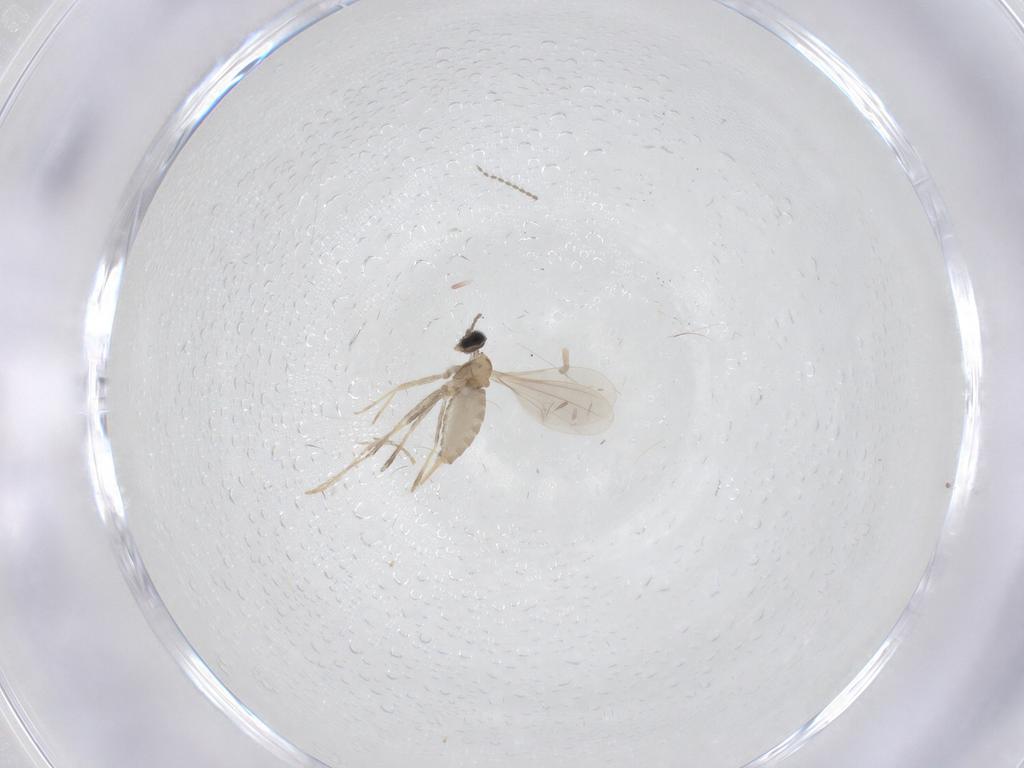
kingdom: Animalia
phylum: Arthropoda
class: Insecta
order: Diptera
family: Cecidomyiidae
